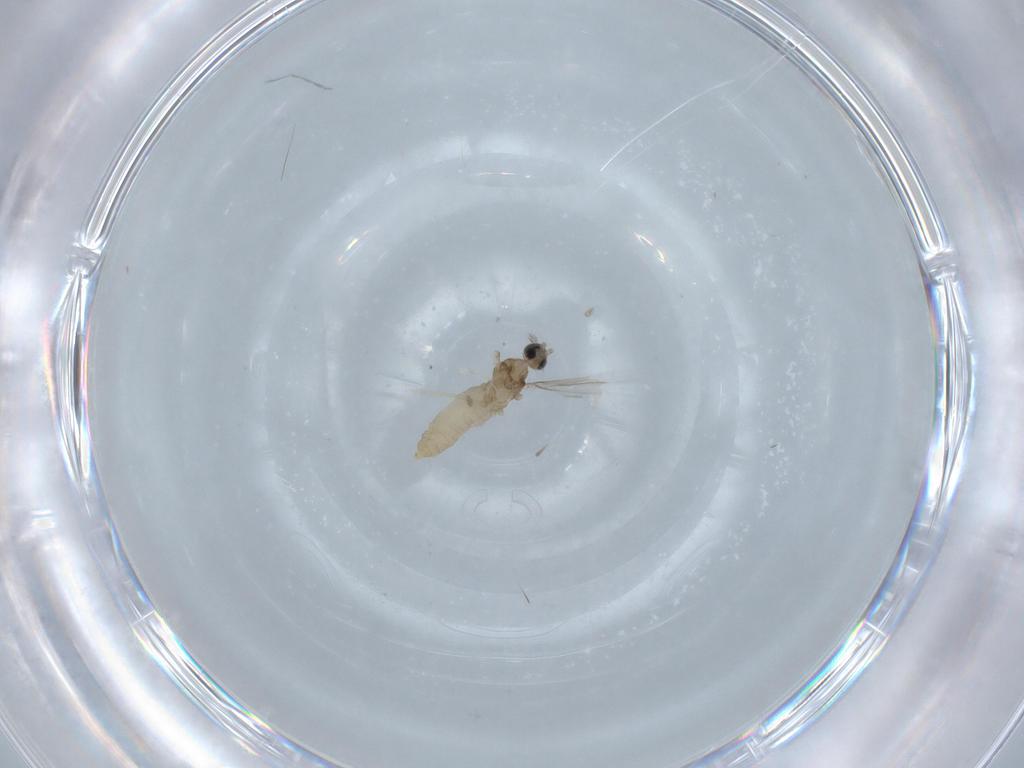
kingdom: Animalia
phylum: Arthropoda
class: Insecta
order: Diptera
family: Cecidomyiidae
